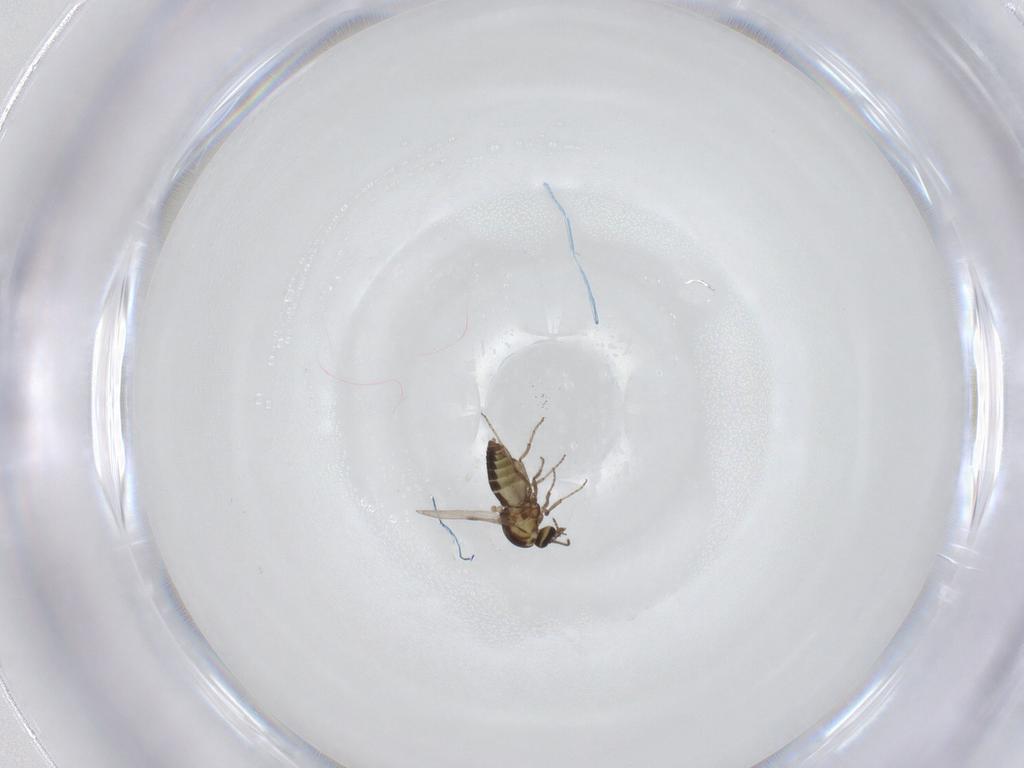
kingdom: Animalia
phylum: Arthropoda
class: Insecta
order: Diptera
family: Ceratopogonidae
